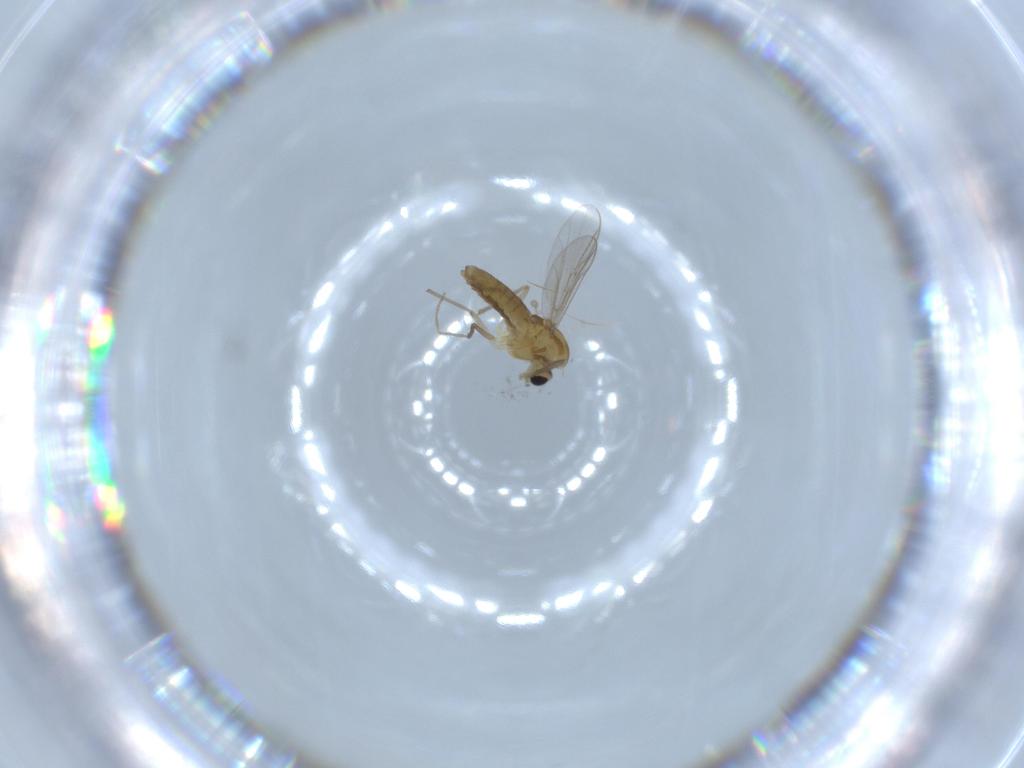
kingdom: Animalia
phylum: Arthropoda
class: Insecta
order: Diptera
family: Chironomidae
